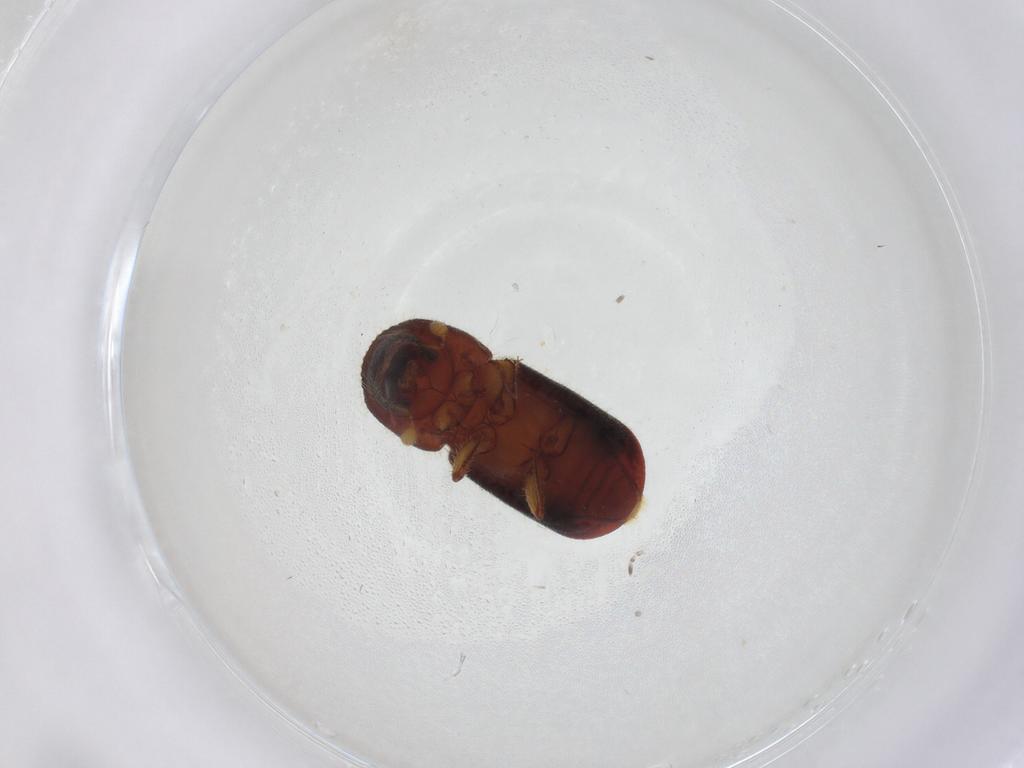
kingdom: Animalia
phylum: Arthropoda
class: Insecta
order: Coleoptera
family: Curculionidae
